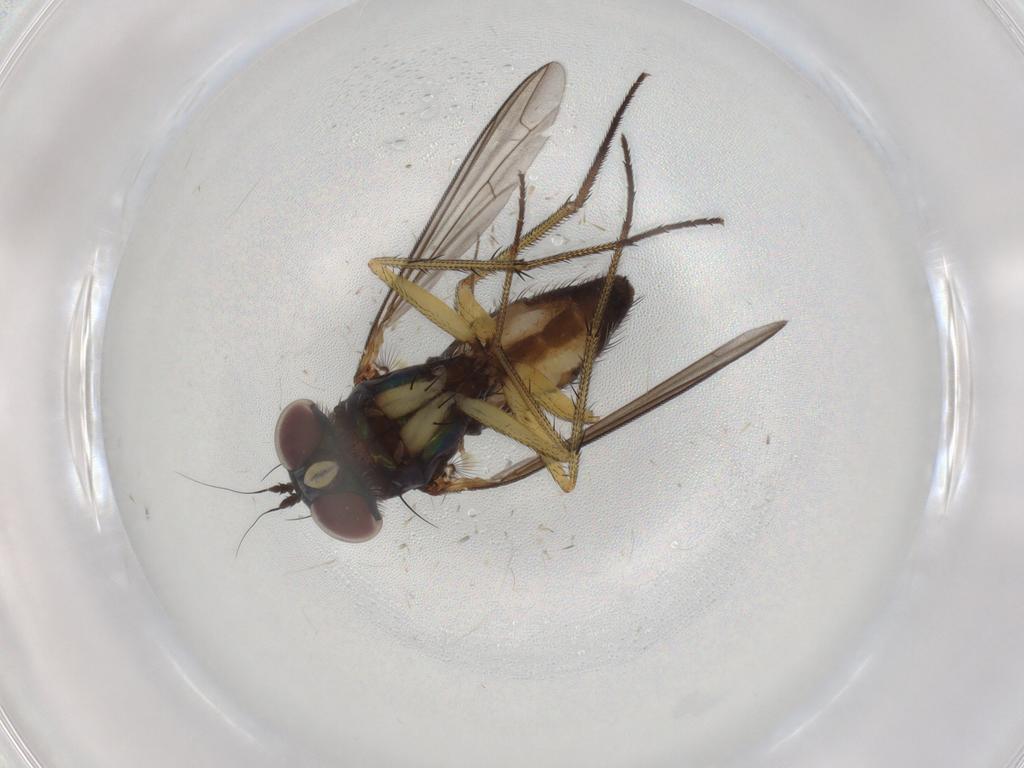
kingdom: Animalia
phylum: Arthropoda
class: Insecta
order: Diptera
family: Dolichopodidae
